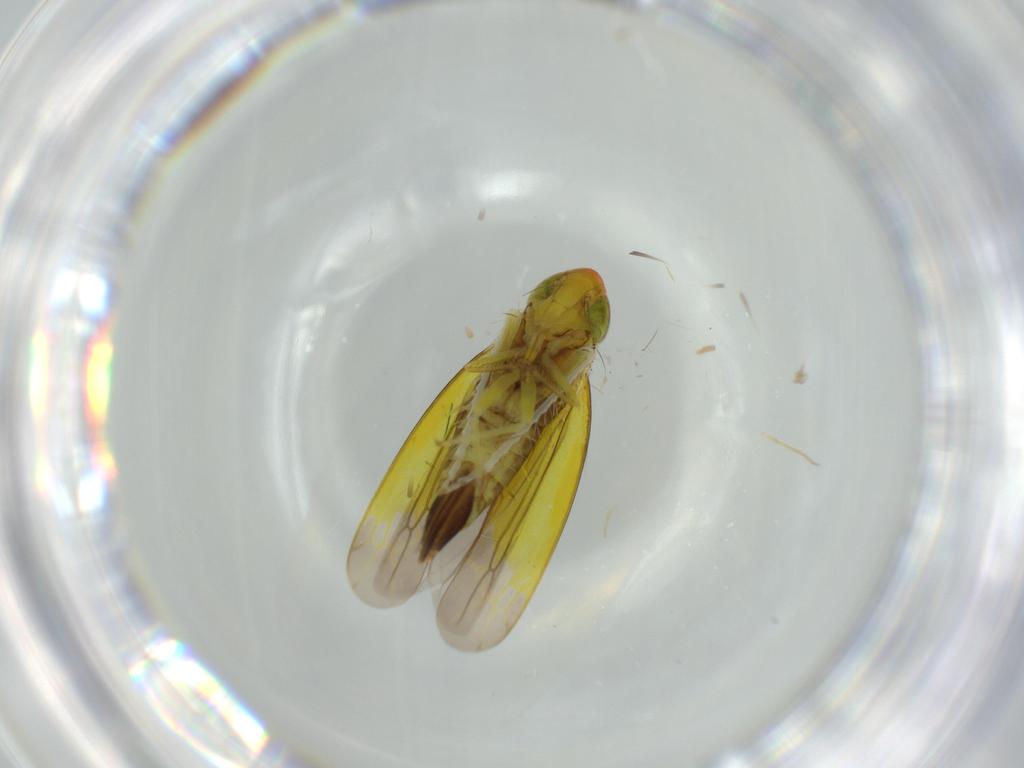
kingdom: Animalia
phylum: Arthropoda
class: Insecta
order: Hemiptera
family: Cicadellidae
